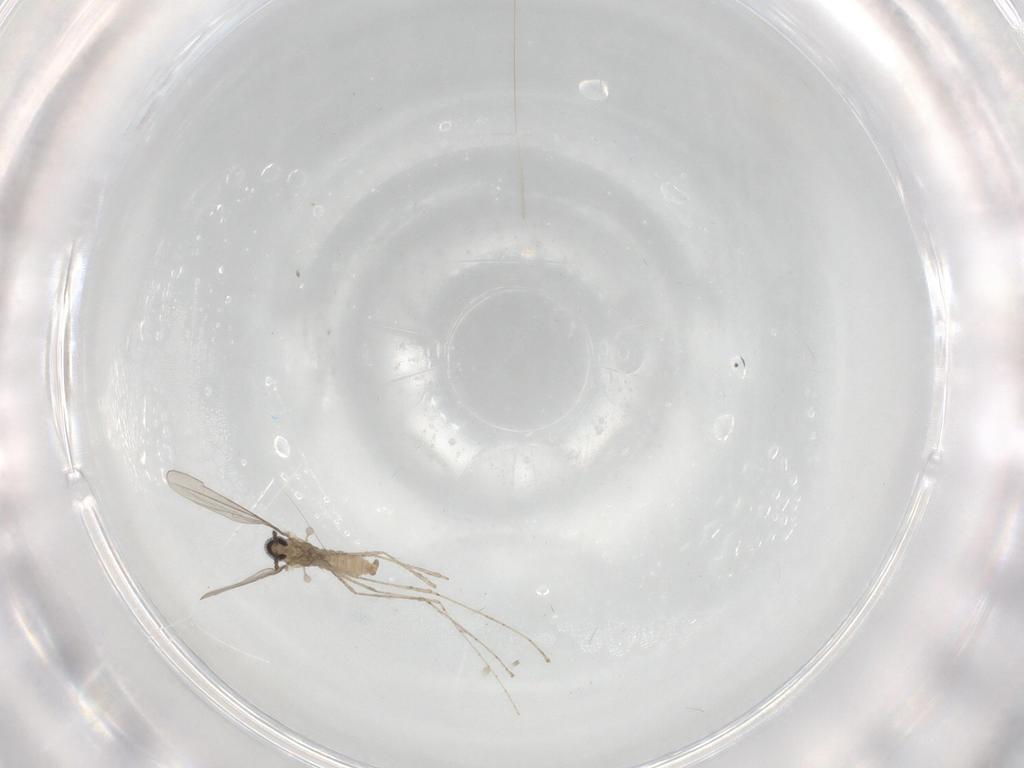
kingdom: Animalia
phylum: Arthropoda
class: Insecta
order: Diptera
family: Cecidomyiidae
